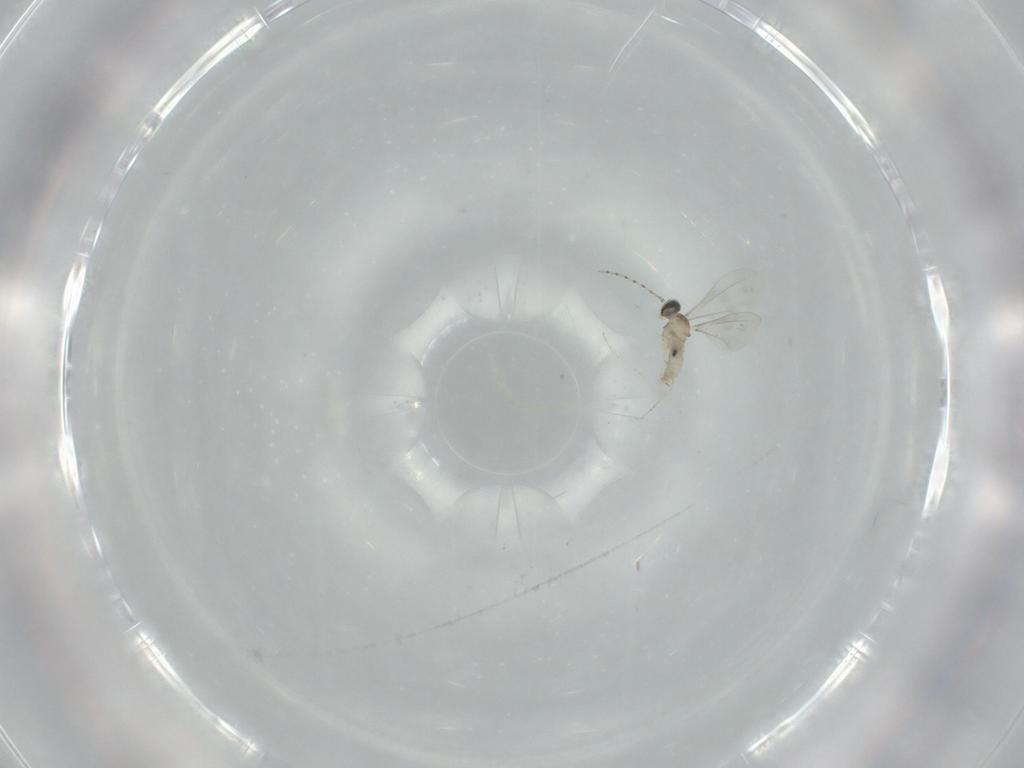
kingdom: Animalia
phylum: Arthropoda
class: Insecta
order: Diptera
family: Cecidomyiidae
